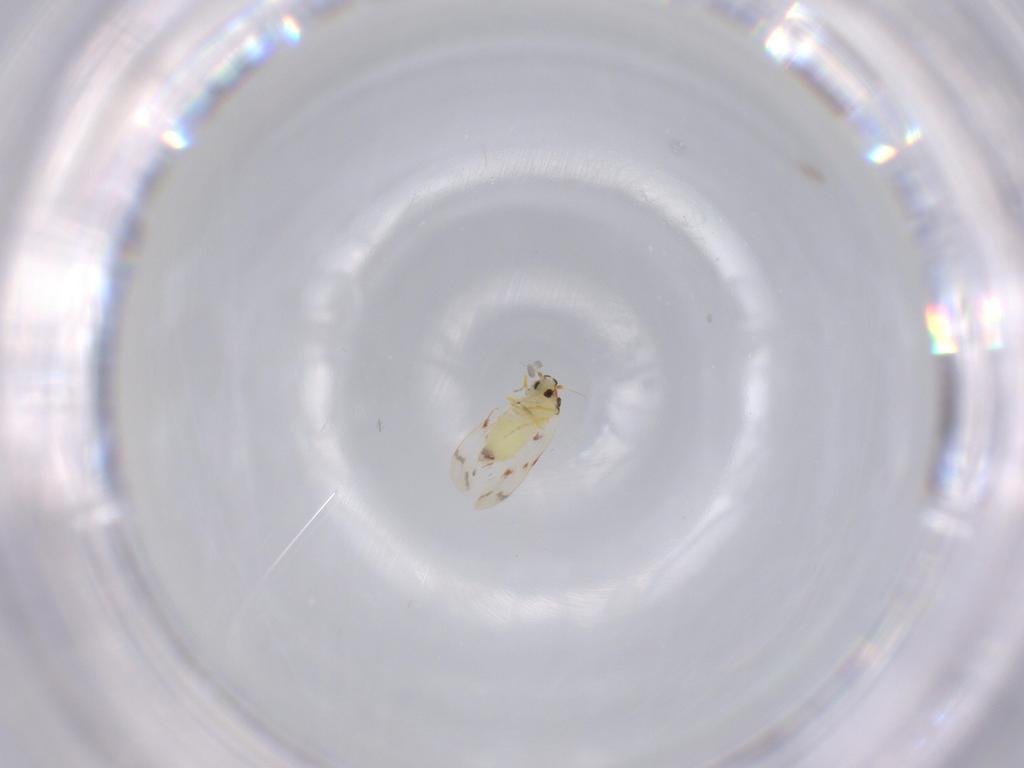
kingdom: Animalia
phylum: Arthropoda
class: Insecta
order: Hemiptera
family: Aleyrodidae
